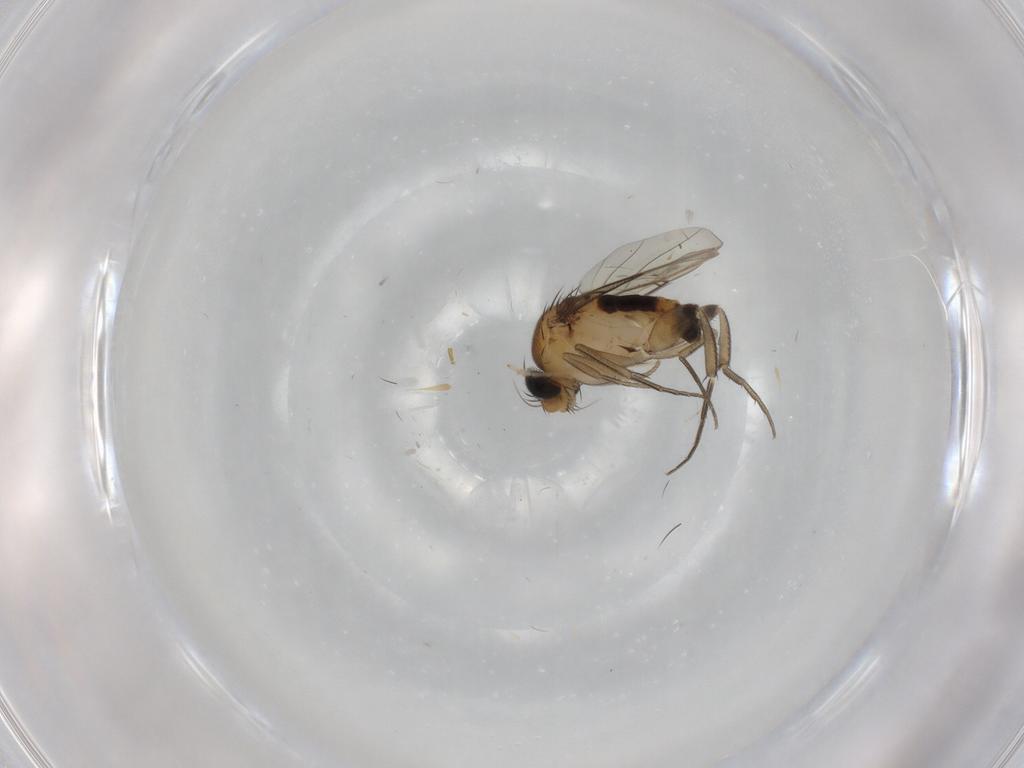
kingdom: Animalia
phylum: Arthropoda
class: Insecta
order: Diptera
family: Phoridae
